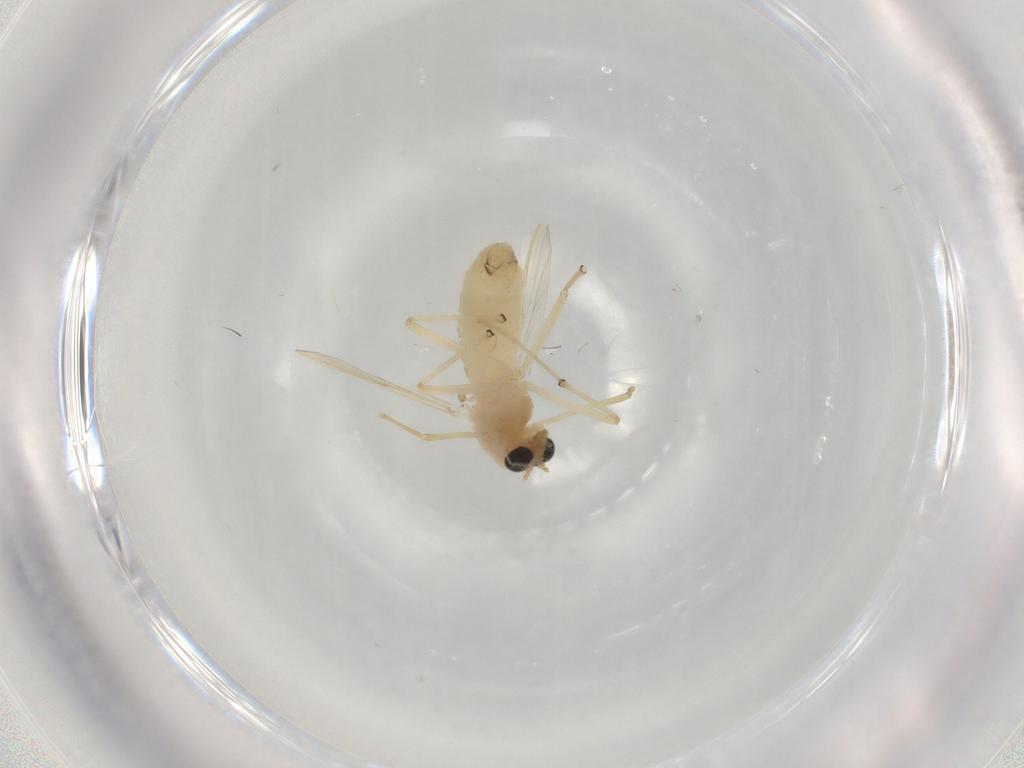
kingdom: Animalia
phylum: Arthropoda
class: Insecta
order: Diptera
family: Chironomidae
